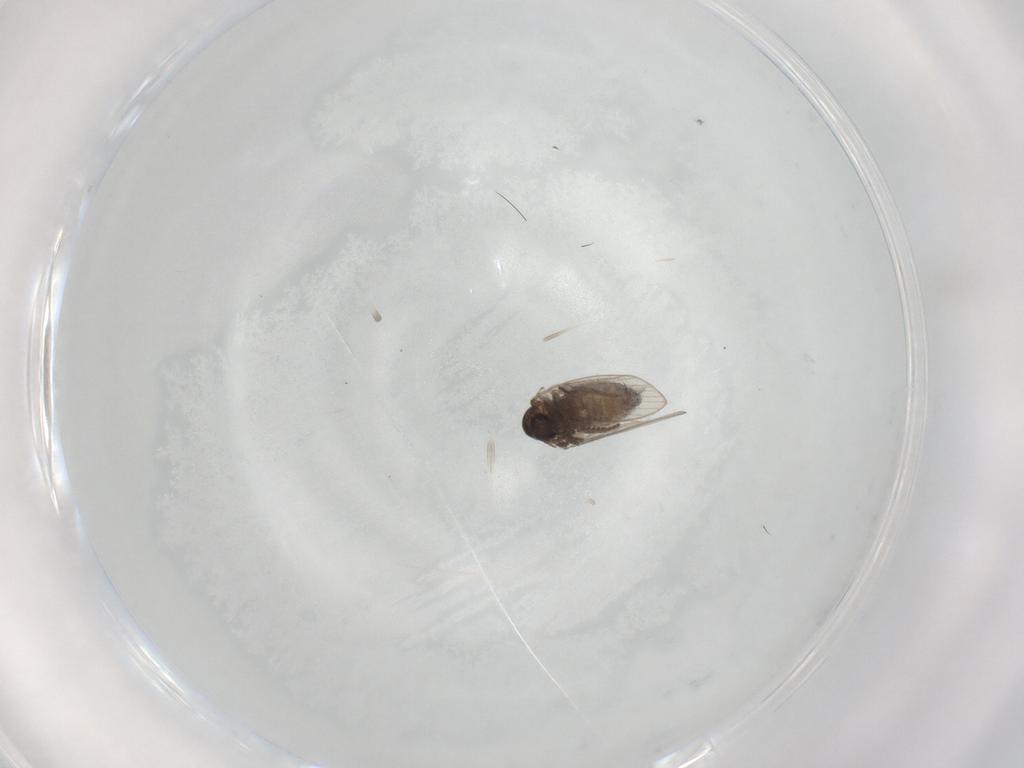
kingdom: Animalia
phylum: Arthropoda
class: Insecta
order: Diptera
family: Psychodidae
